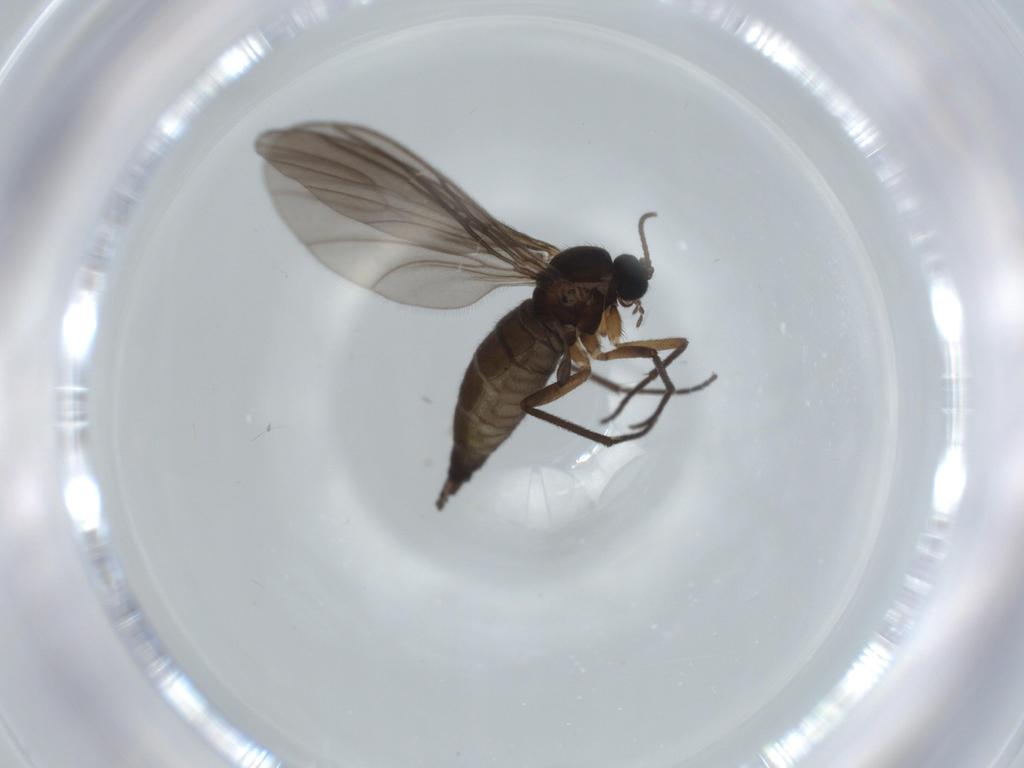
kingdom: Animalia
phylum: Arthropoda
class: Insecta
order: Diptera
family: Sciaridae
